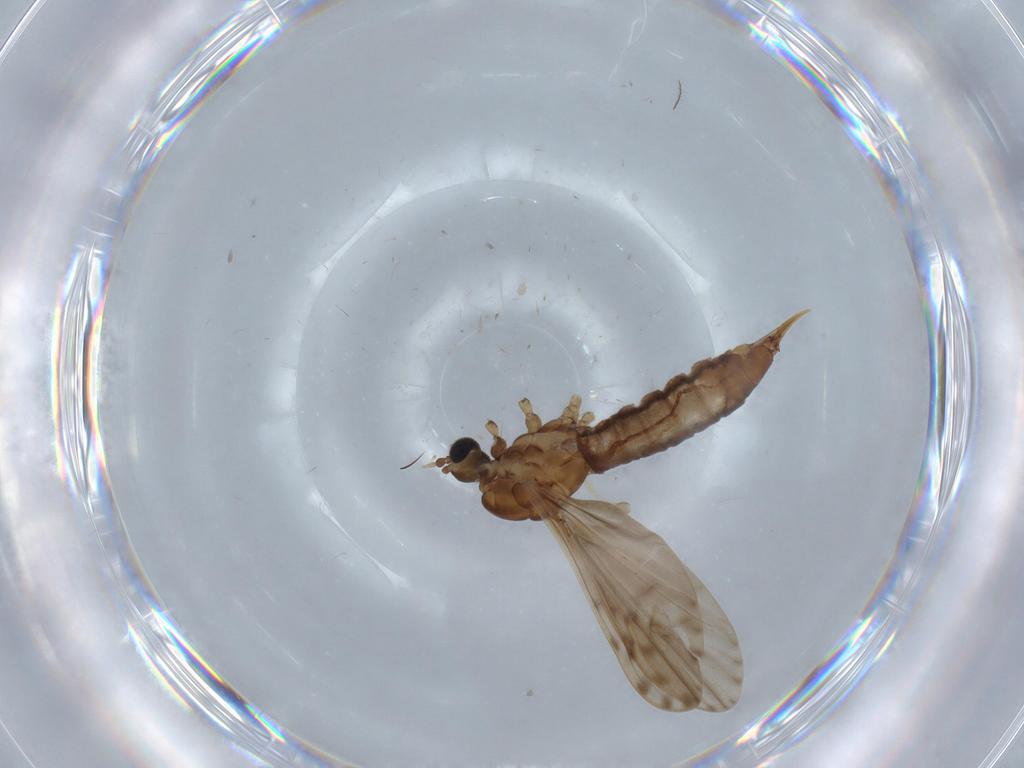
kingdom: Animalia
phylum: Arthropoda
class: Insecta
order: Diptera
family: Limoniidae
